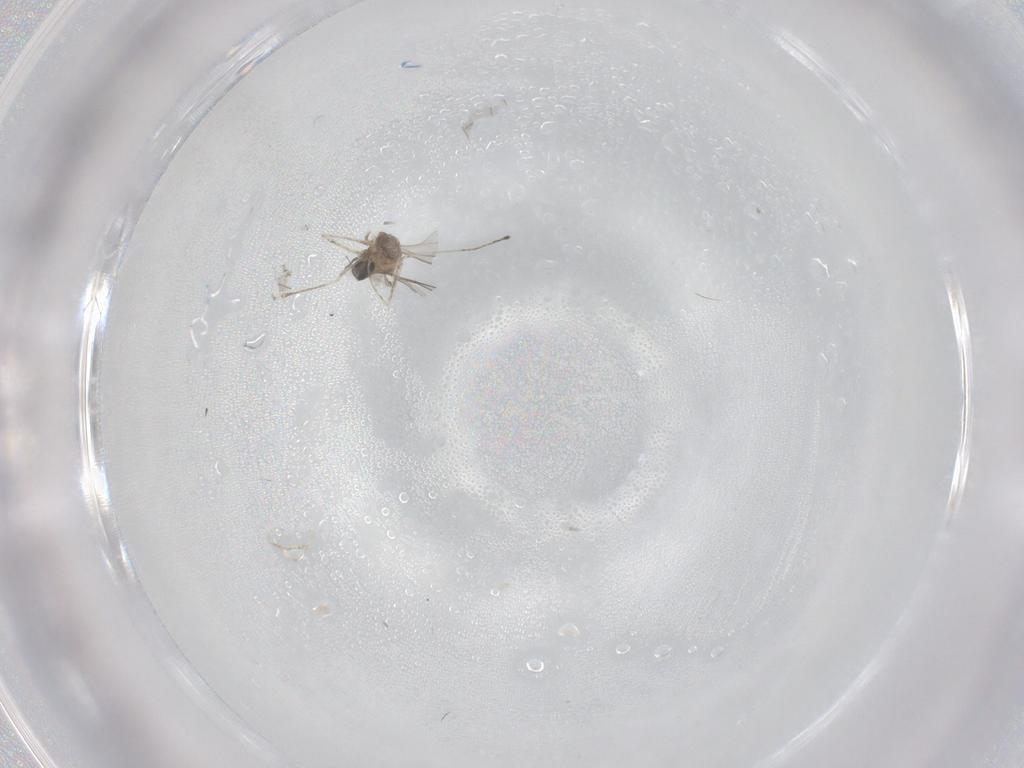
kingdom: Animalia
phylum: Arthropoda
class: Insecta
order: Diptera
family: Cecidomyiidae
